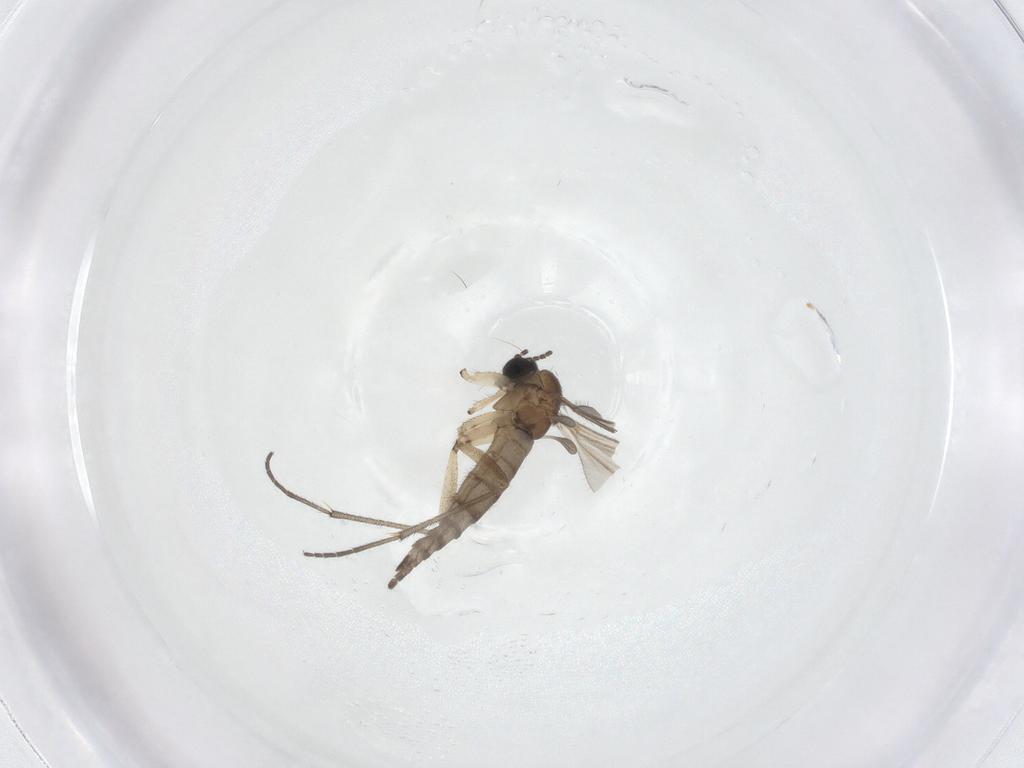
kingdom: Animalia
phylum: Arthropoda
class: Insecta
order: Diptera
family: Sciaridae
